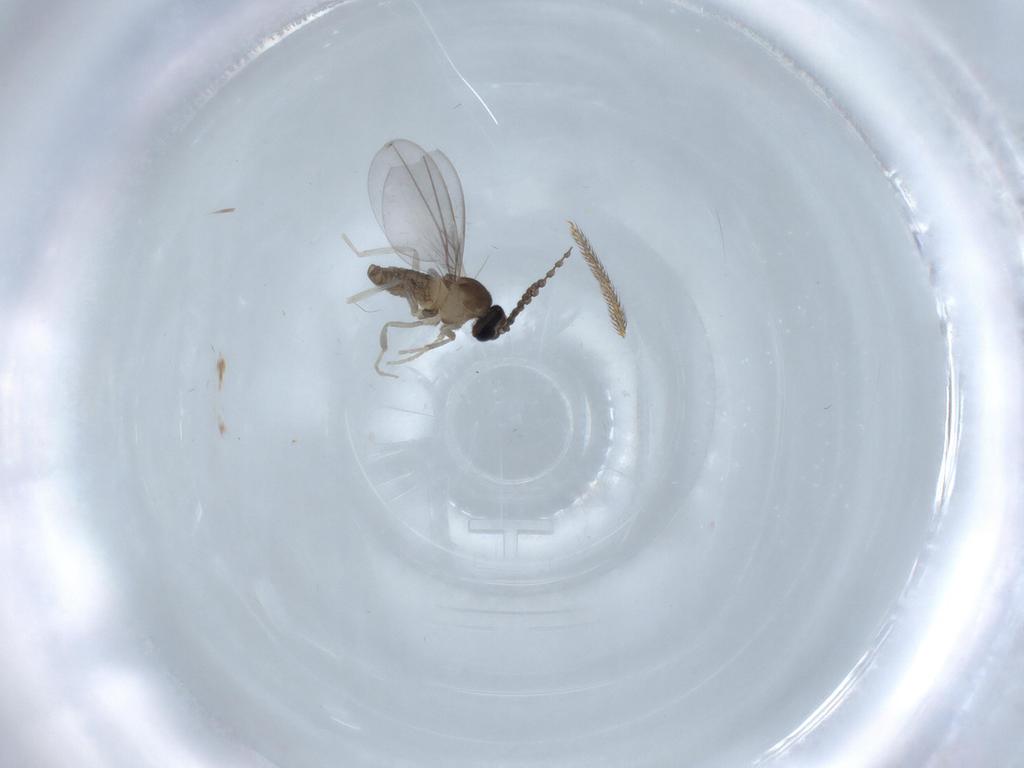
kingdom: Animalia
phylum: Arthropoda
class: Insecta
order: Diptera
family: Cecidomyiidae
